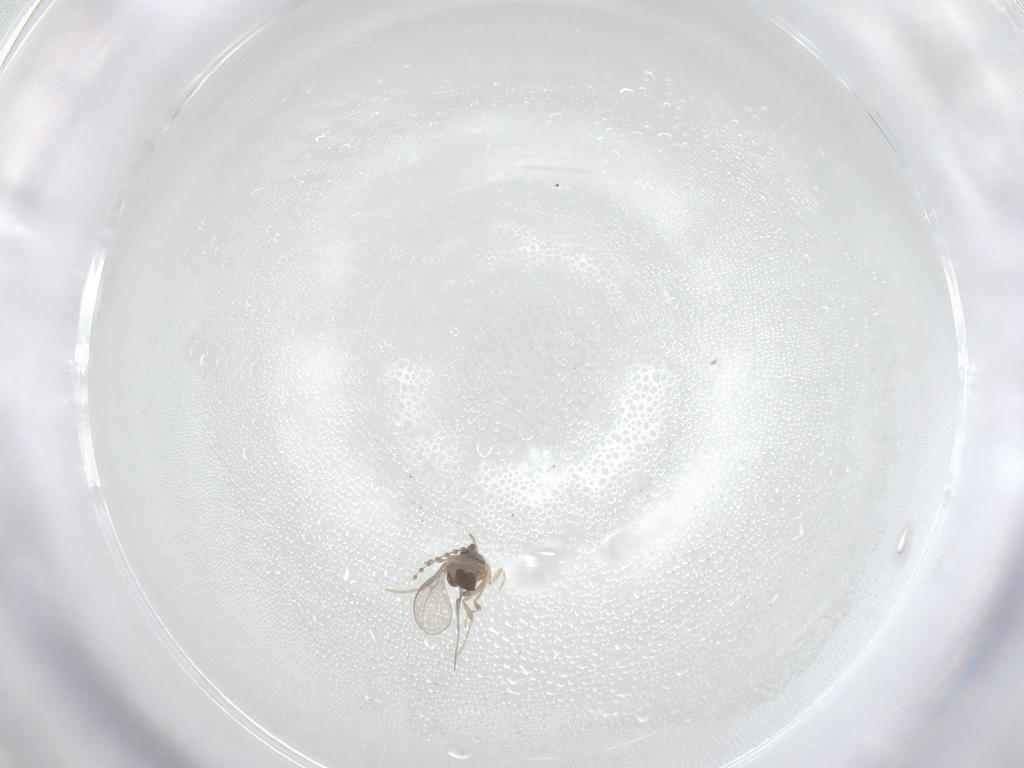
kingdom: Animalia
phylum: Arthropoda
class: Insecta
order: Diptera
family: Cecidomyiidae
